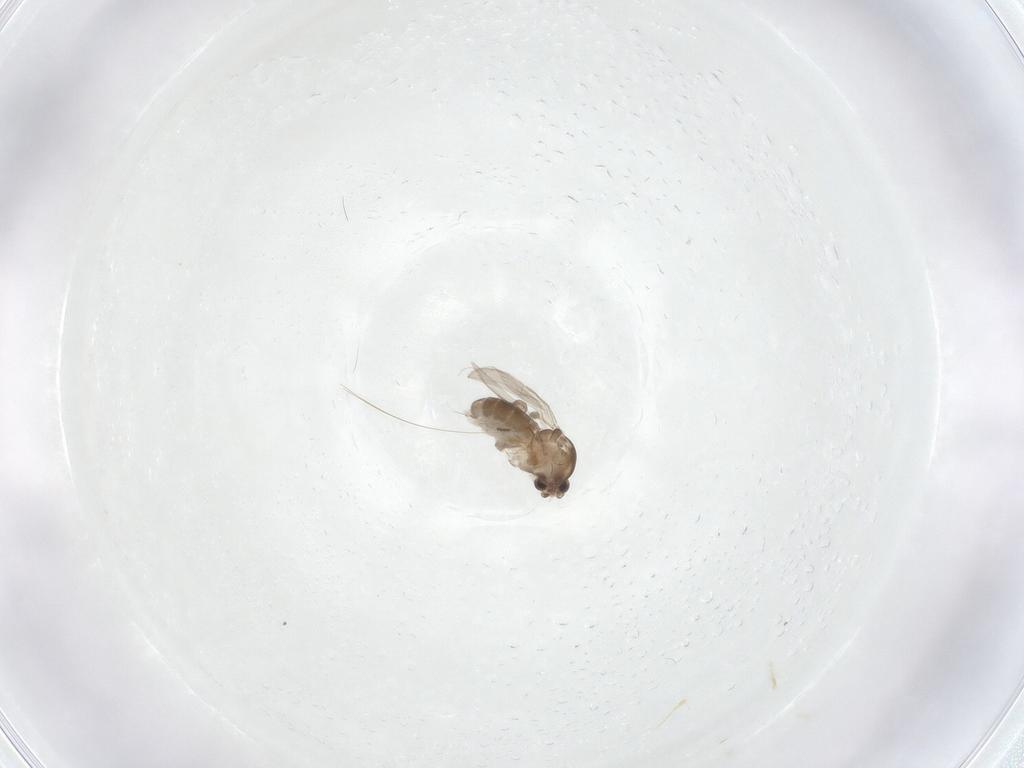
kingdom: Animalia
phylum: Arthropoda
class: Insecta
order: Diptera
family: Ceratopogonidae
